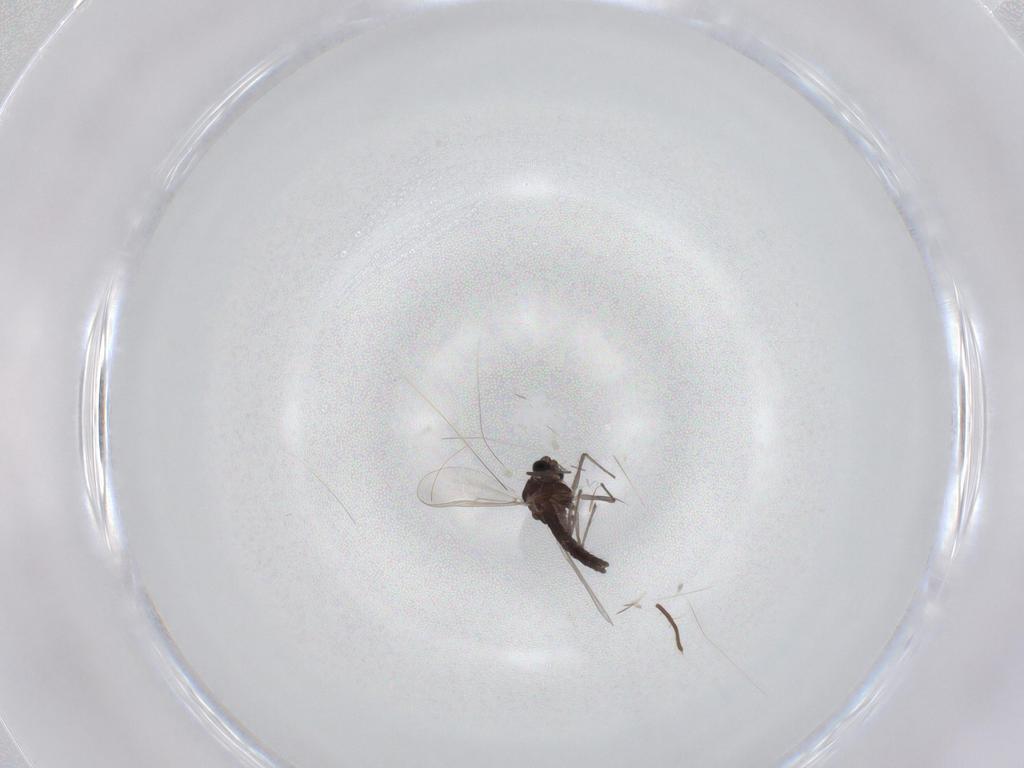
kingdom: Animalia
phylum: Arthropoda
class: Insecta
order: Diptera
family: Chironomidae
